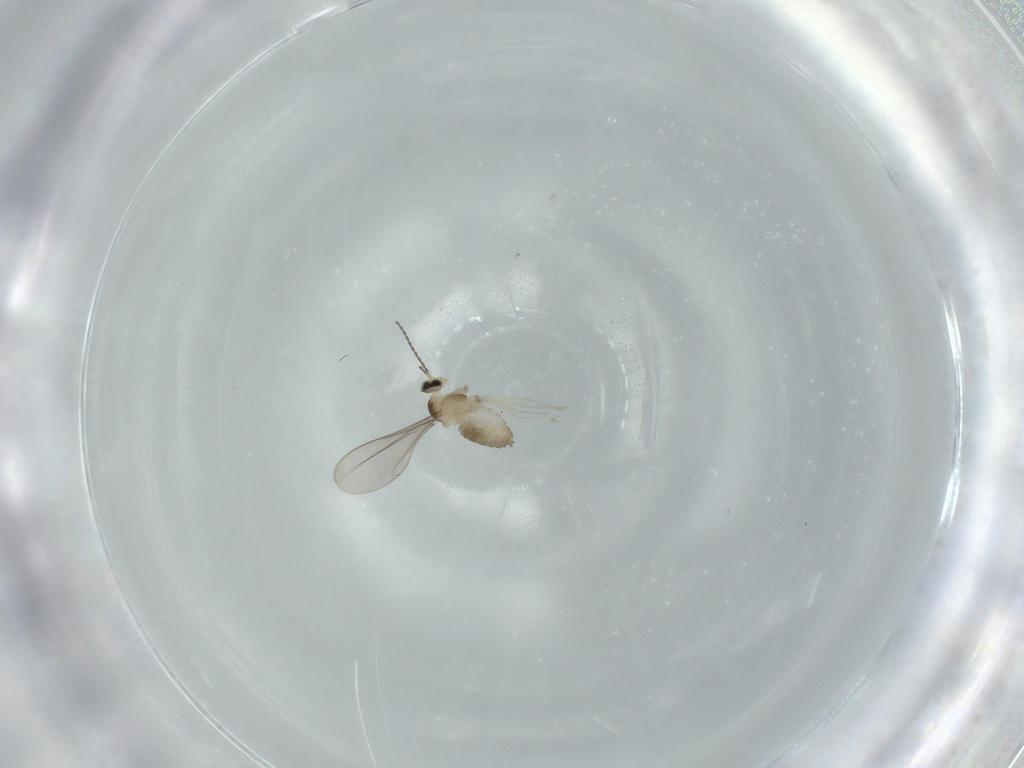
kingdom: Animalia
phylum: Arthropoda
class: Insecta
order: Diptera
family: Cecidomyiidae
